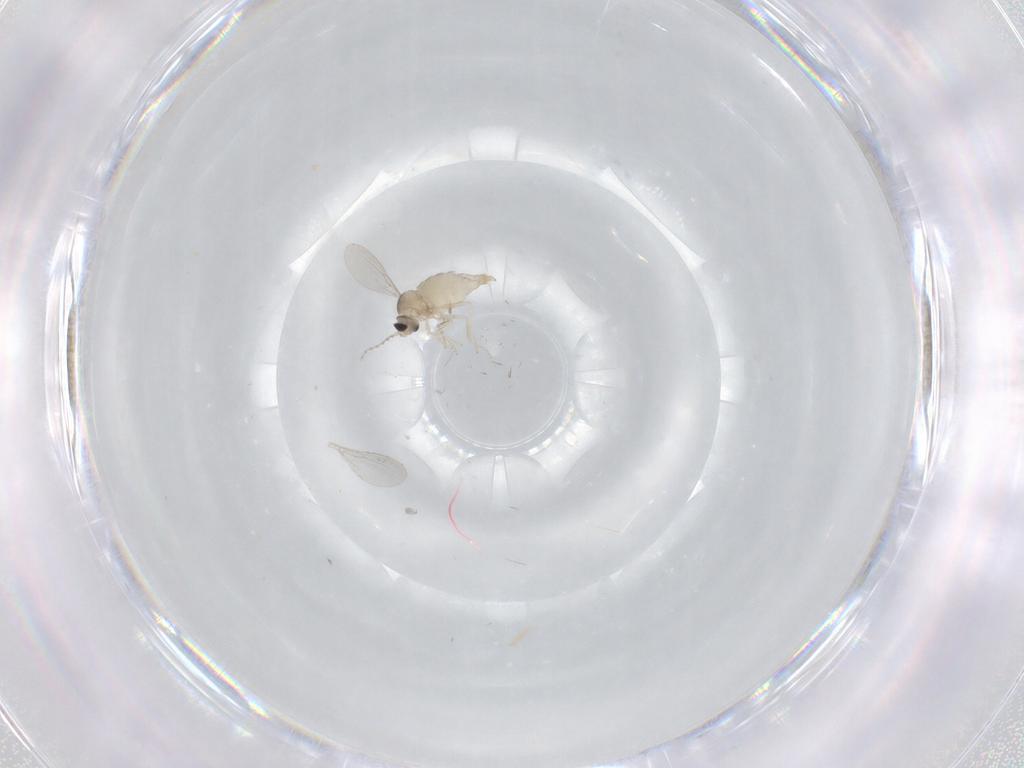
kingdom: Animalia
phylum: Arthropoda
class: Insecta
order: Diptera
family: Cecidomyiidae
